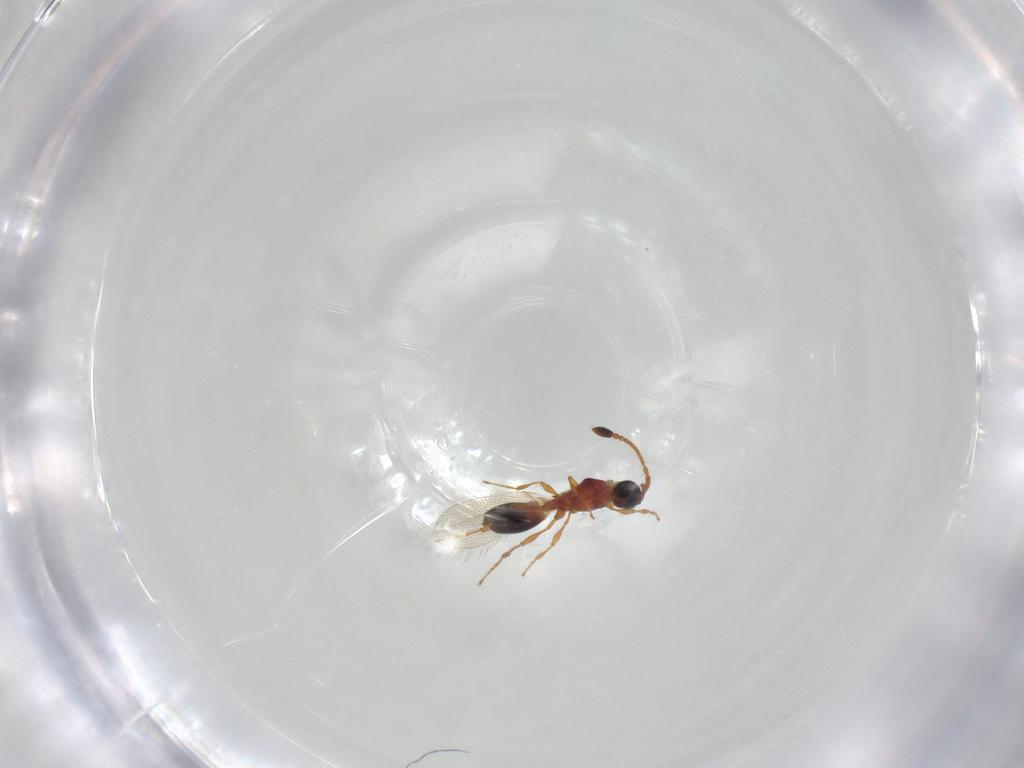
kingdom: Animalia
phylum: Arthropoda
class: Insecta
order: Hymenoptera
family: Diapriidae
